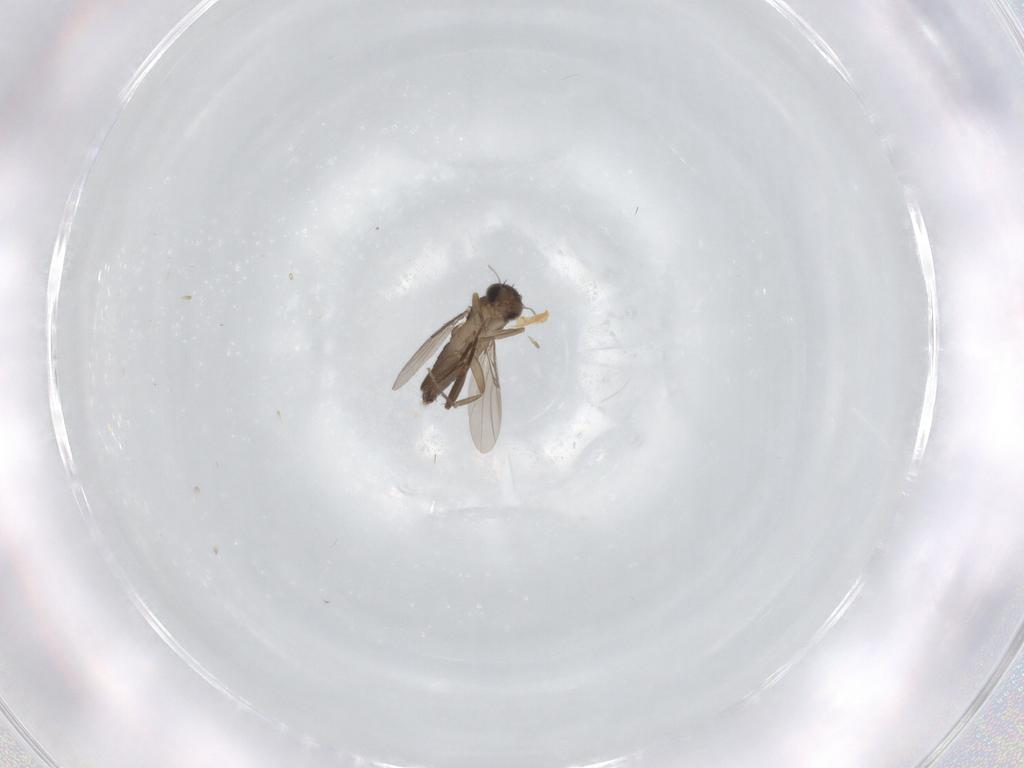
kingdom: Animalia
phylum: Arthropoda
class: Insecta
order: Diptera
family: Phoridae
